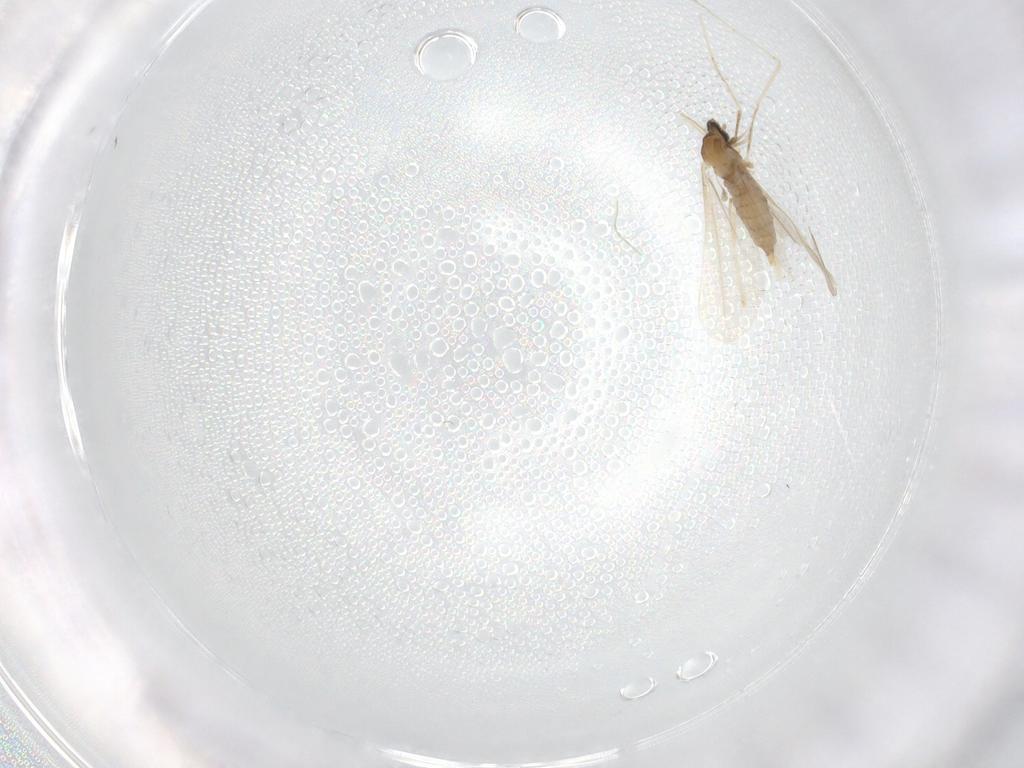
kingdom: Animalia
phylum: Arthropoda
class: Insecta
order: Diptera
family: Cecidomyiidae
